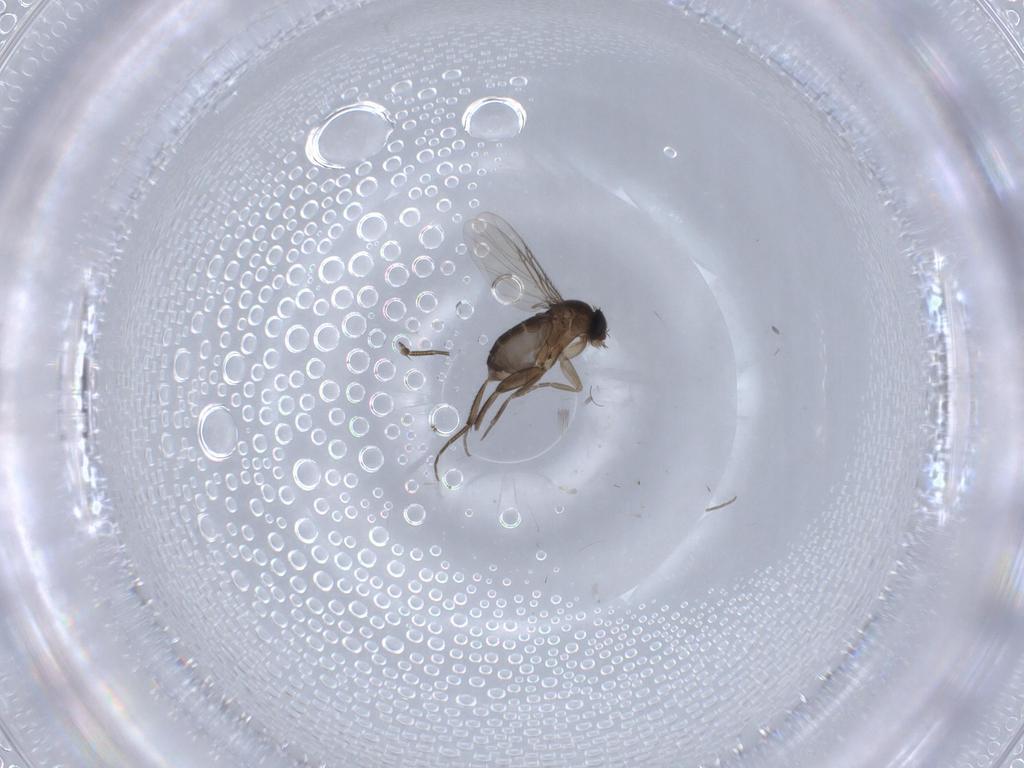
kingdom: Animalia
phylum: Arthropoda
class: Insecta
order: Diptera
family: Phoridae
